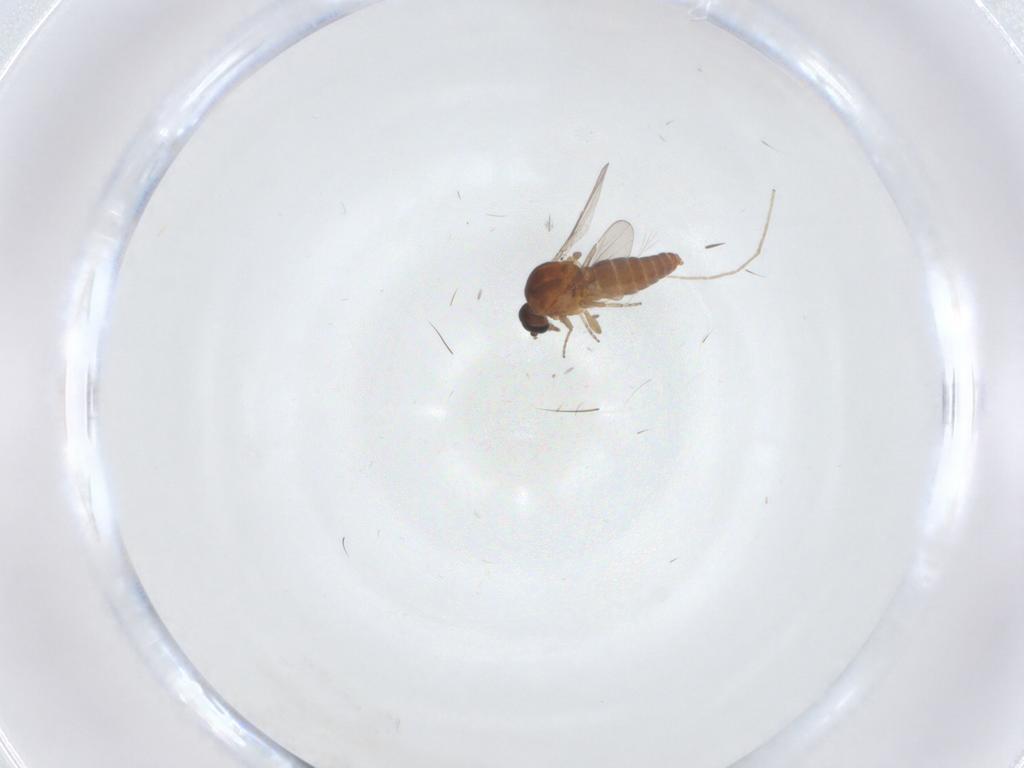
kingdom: Animalia
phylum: Arthropoda
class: Insecta
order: Diptera
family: Ceratopogonidae
